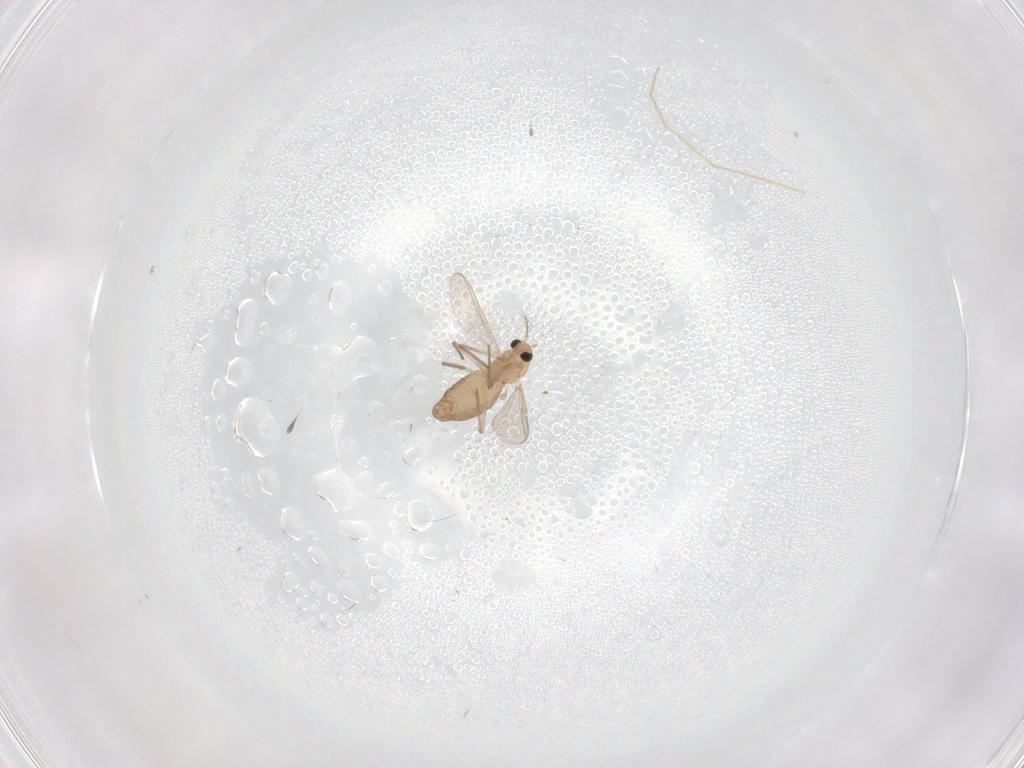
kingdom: Animalia
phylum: Arthropoda
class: Insecta
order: Diptera
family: Chironomidae
